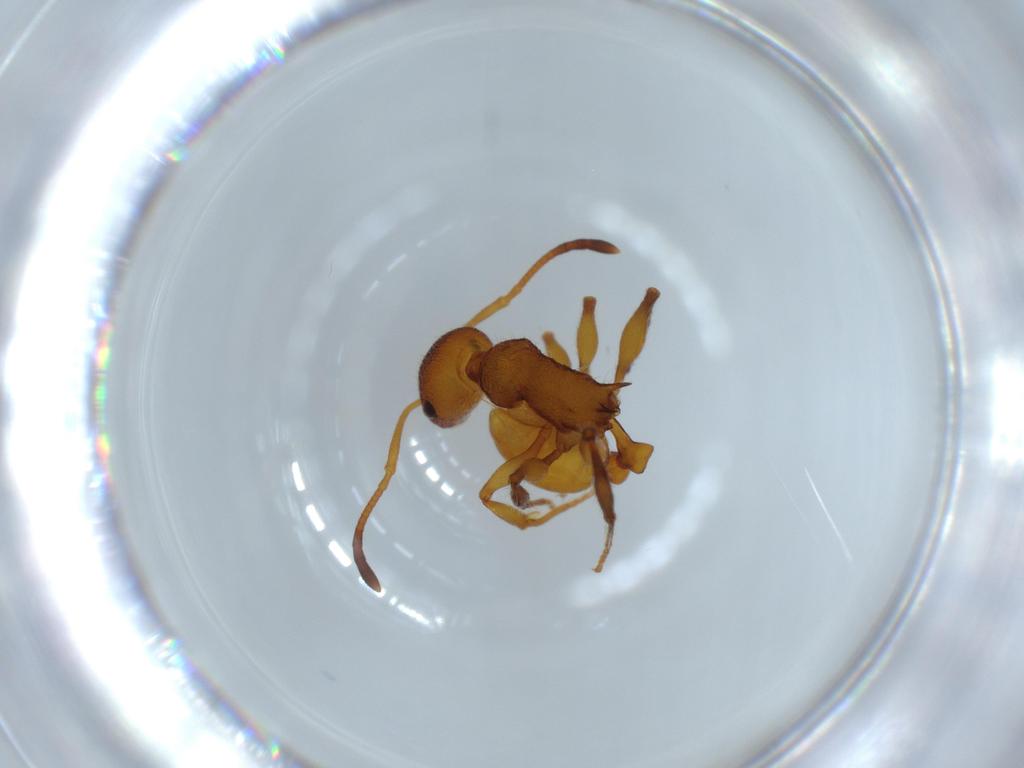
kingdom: Animalia
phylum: Arthropoda
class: Insecta
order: Hymenoptera
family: Formicidae
